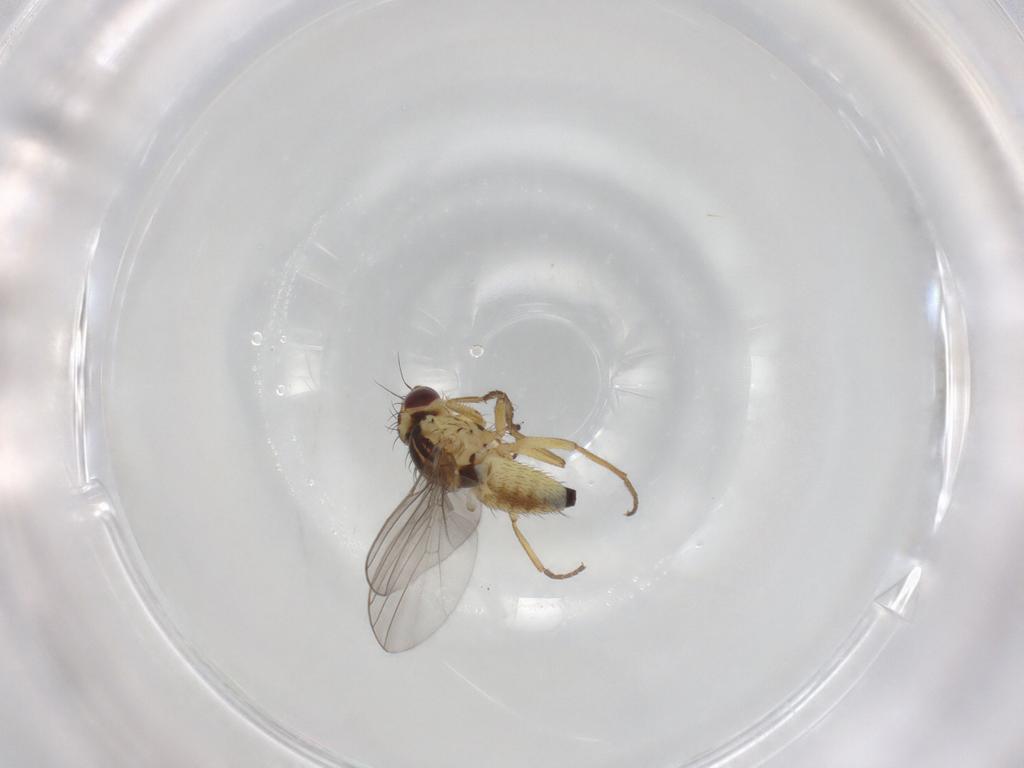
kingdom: Animalia
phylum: Arthropoda
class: Insecta
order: Diptera
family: Agromyzidae
